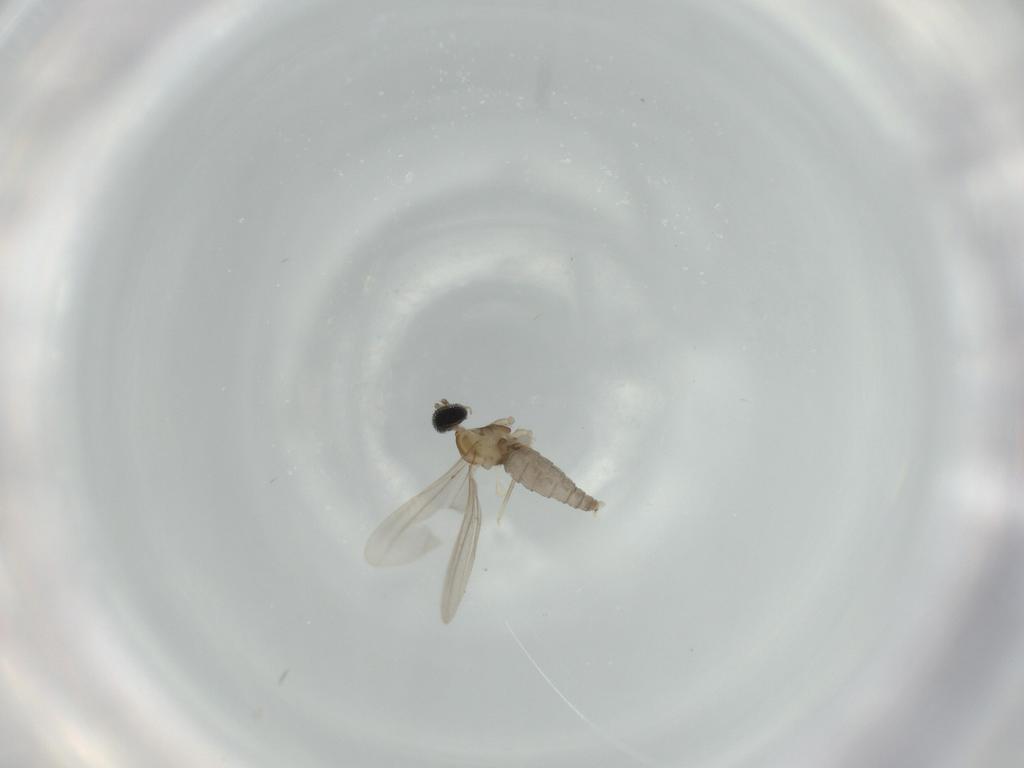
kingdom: Animalia
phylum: Arthropoda
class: Insecta
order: Diptera
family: Cecidomyiidae
